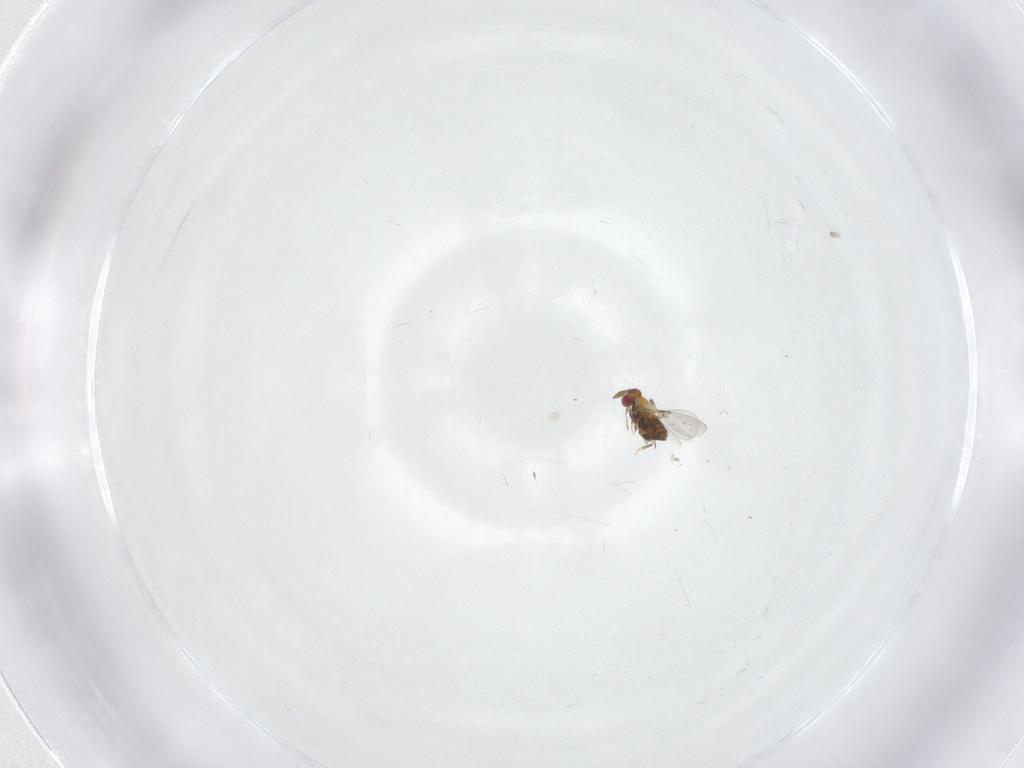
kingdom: Animalia
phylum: Arthropoda
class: Insecta
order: Hymenoptera
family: Trichogrammatidae
